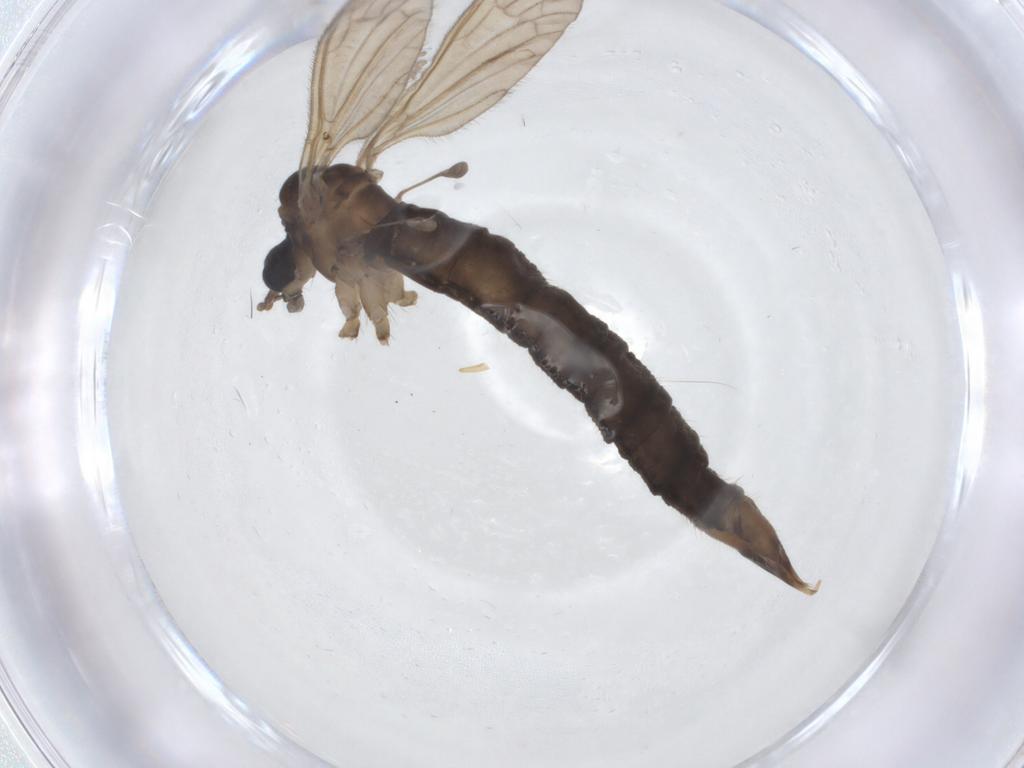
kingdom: Animalia
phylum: Arthropoda
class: Insecta
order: Diptera
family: Limoniidae
